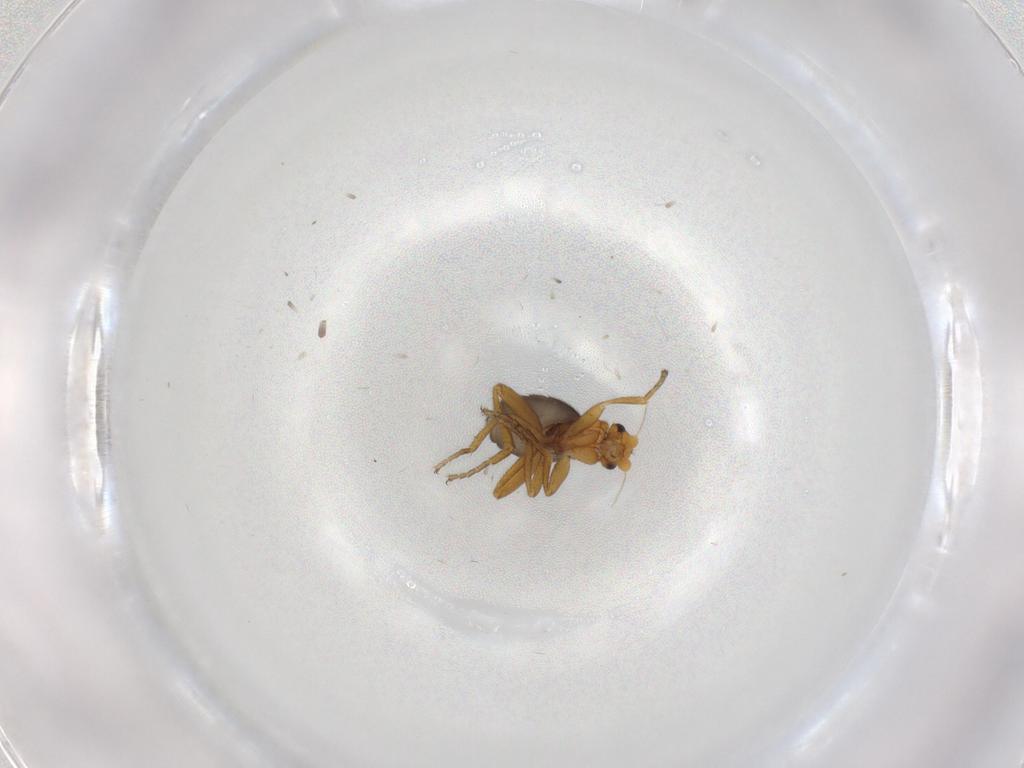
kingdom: Animalia
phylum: Arthropoda
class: Insecta
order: Diptera
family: Phoridae
